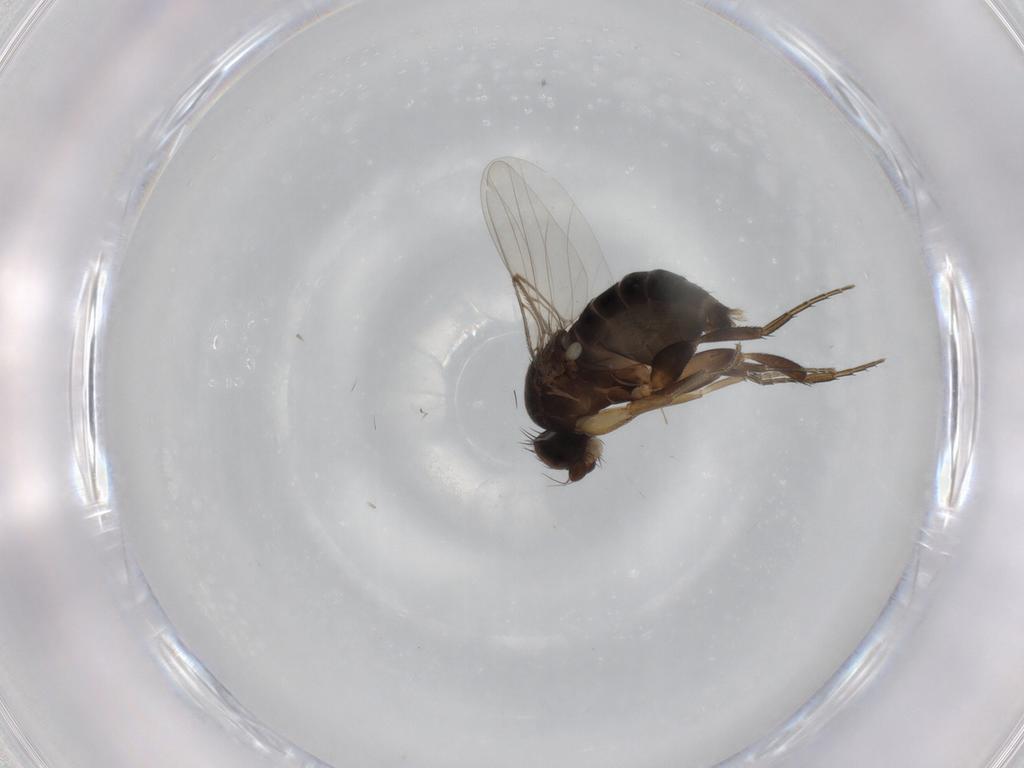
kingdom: Animalia
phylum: Arthropoda
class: Insecta
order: Diptera
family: Phoridae
